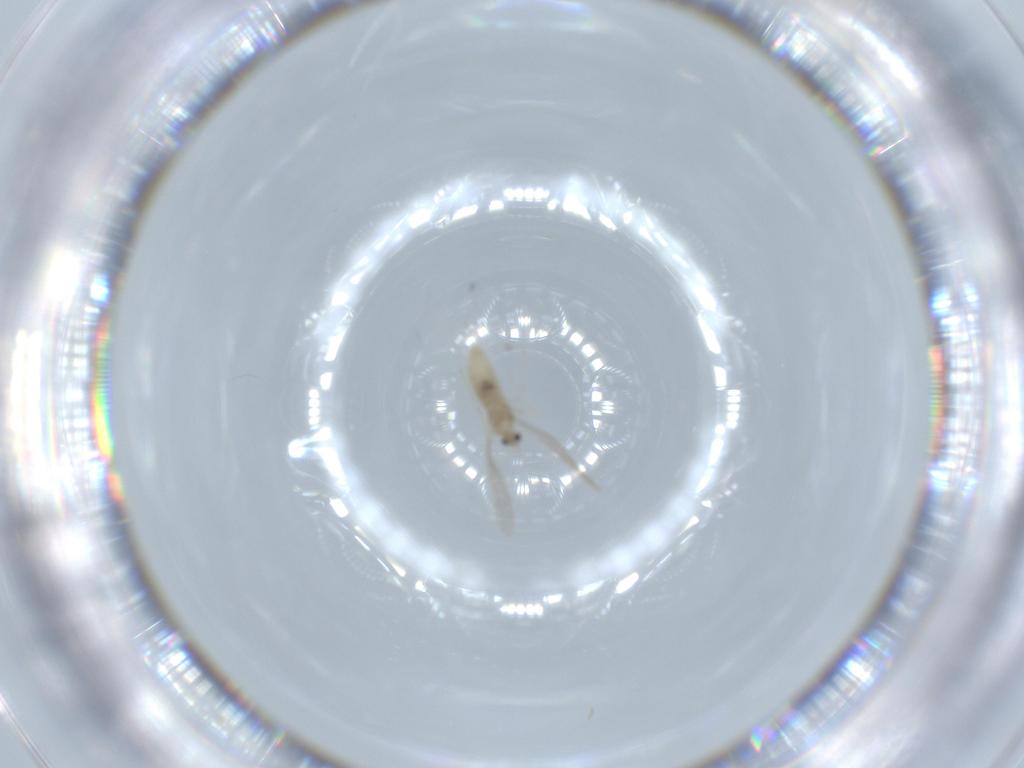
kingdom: Animalia
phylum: Arthropoda
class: Insecta
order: Diptera
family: Cecidomyiidae
